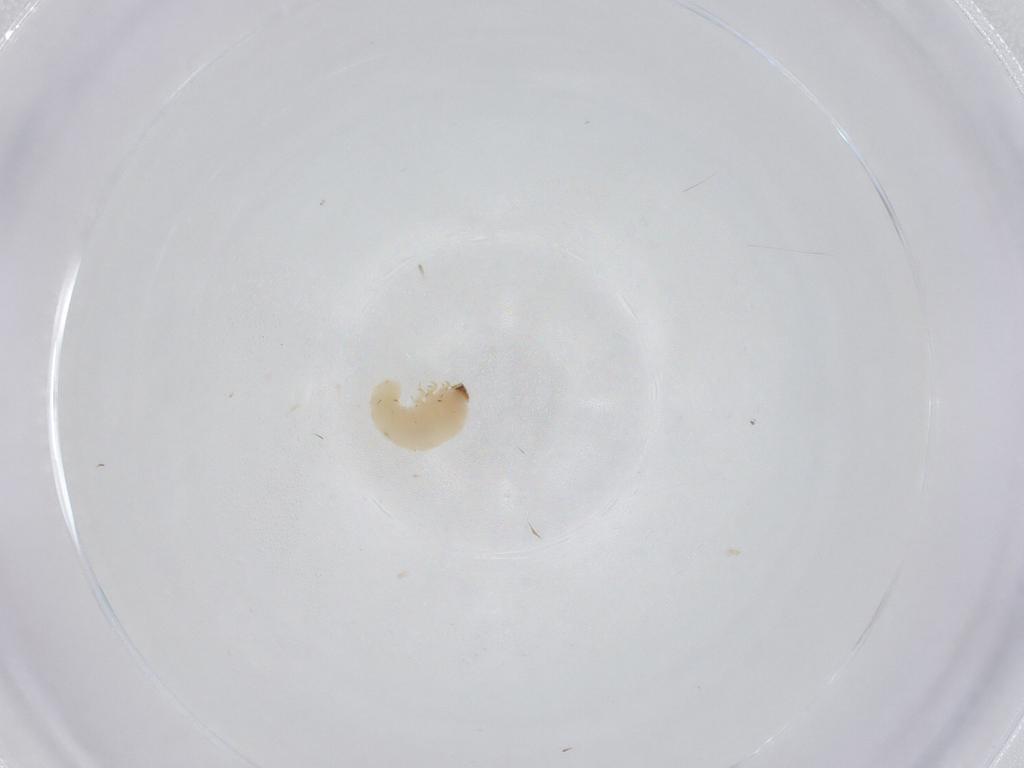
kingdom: Animalia
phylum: Arthropoda
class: Insecta
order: Coleoptera
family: Bostrichidae
